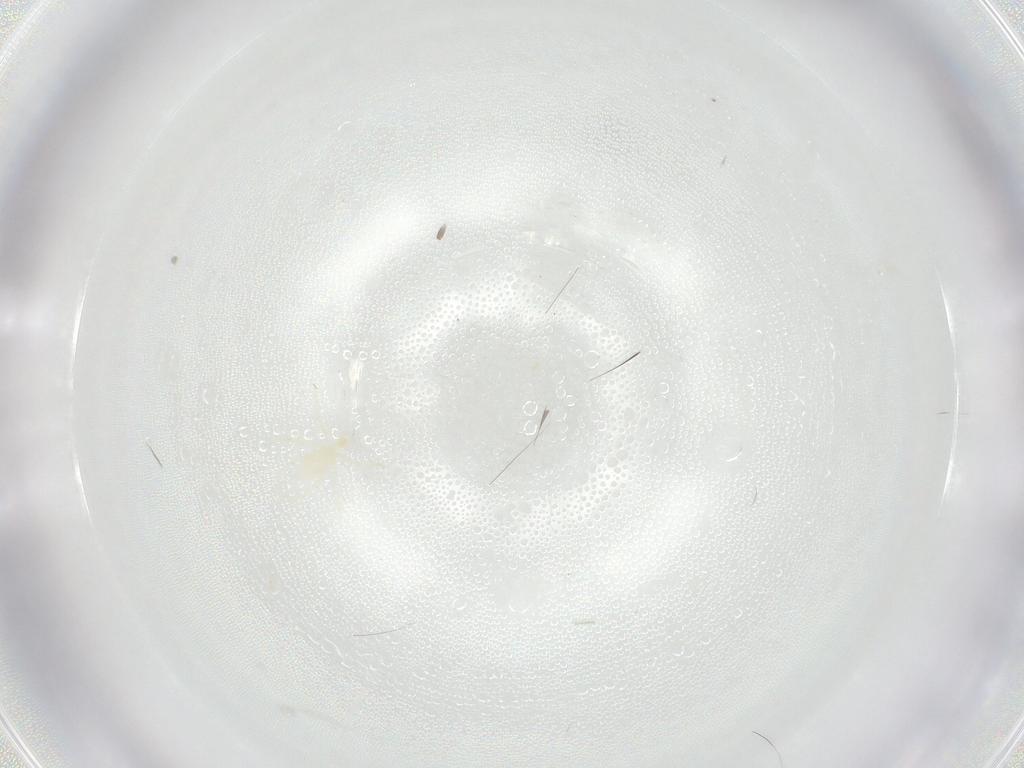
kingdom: Animalia
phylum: Arthropoda
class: Arachnida
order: Trombidiformes
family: Erythraeidae
